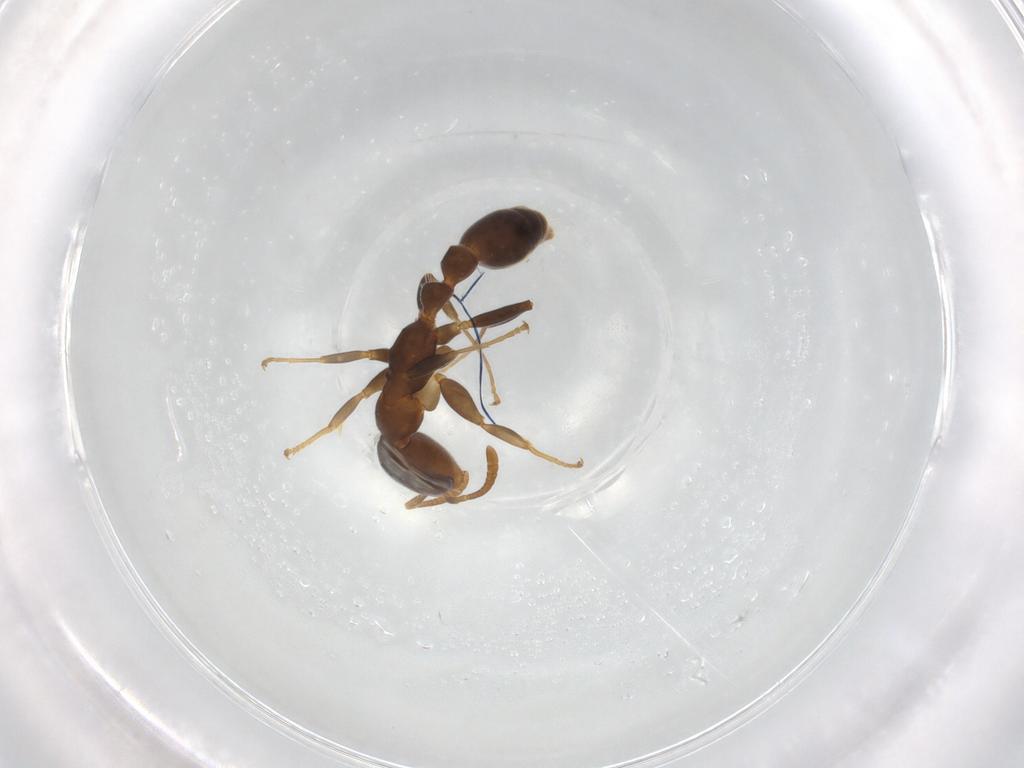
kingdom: Animalia
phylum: Arthropoda
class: Insecta
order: Hymenoptera
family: Formicidae
